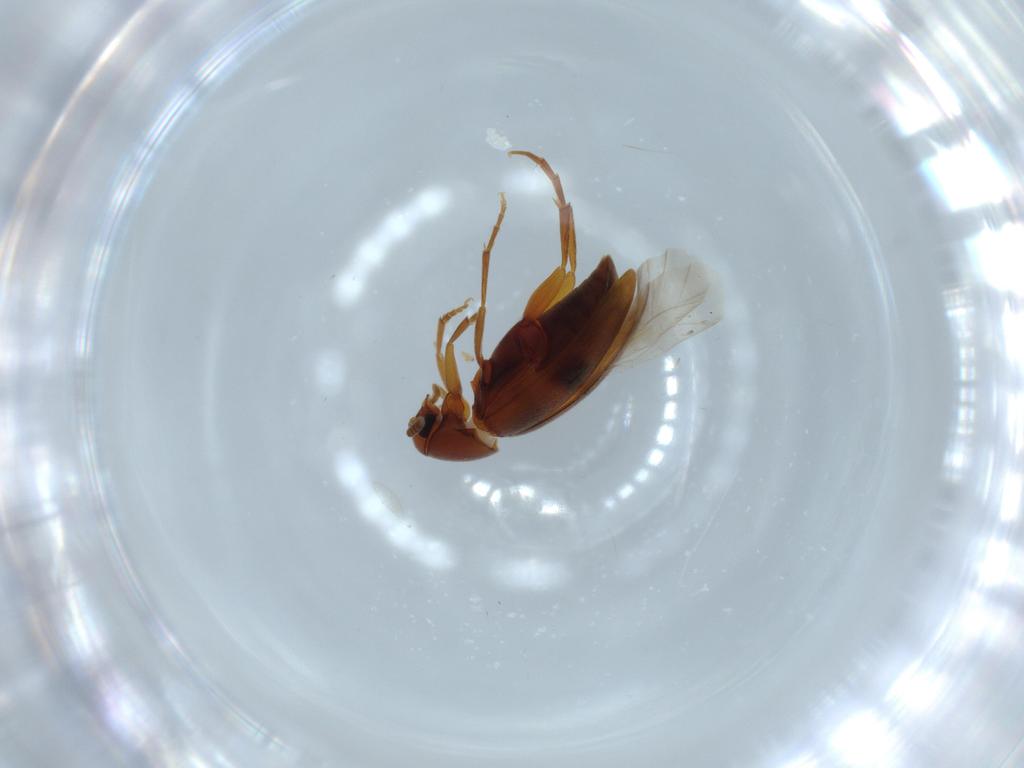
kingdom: Animalia
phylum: Arthropoda
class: Insecta
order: Coleoptera
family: Scraptiidae
